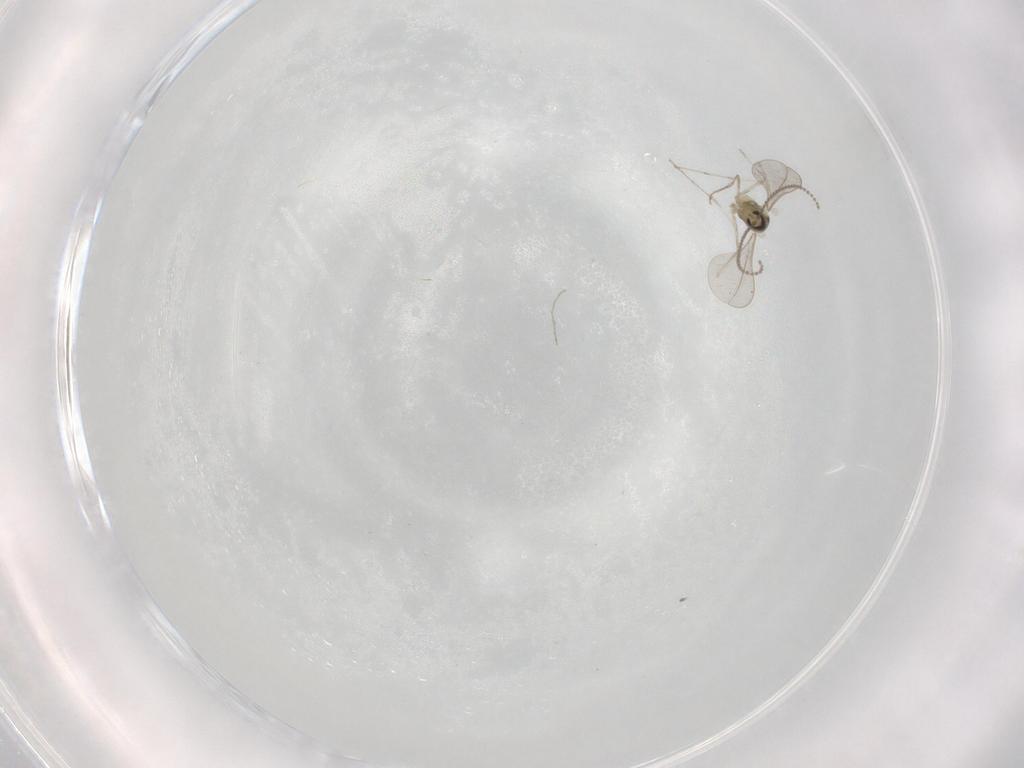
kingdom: Animalia
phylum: Arthropoda
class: Insecta
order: Diptera
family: Cecidomyiidae
